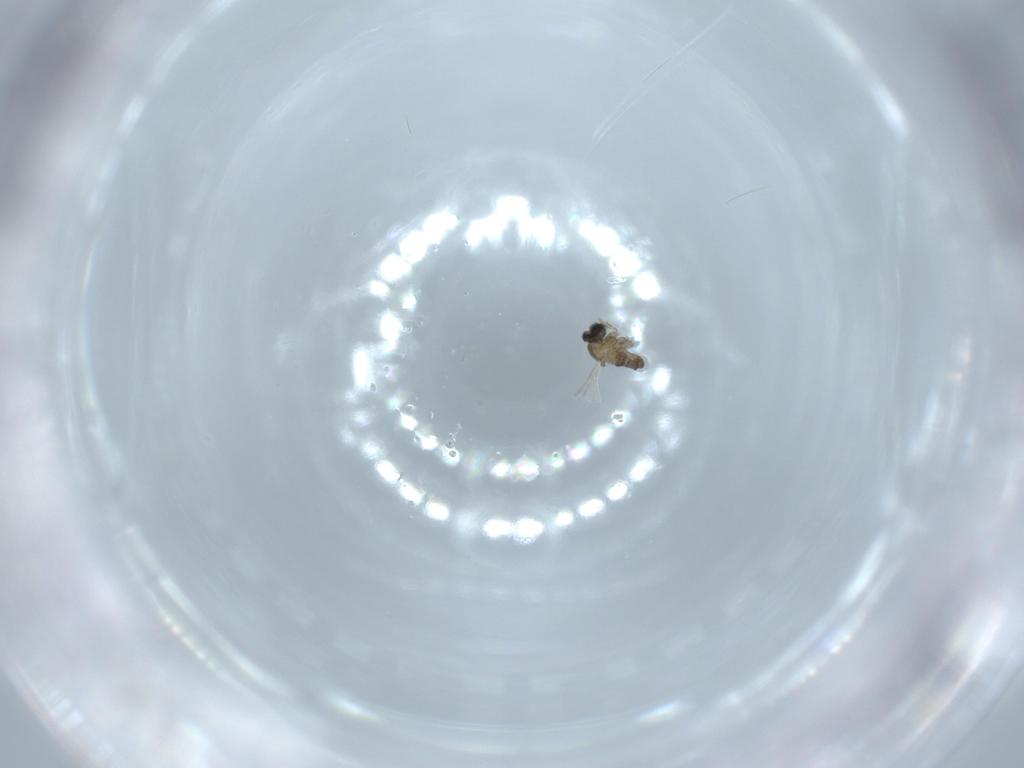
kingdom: Animalia
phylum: Arthropoda
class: Insecta
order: Diptera
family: Cecidomyiidae
